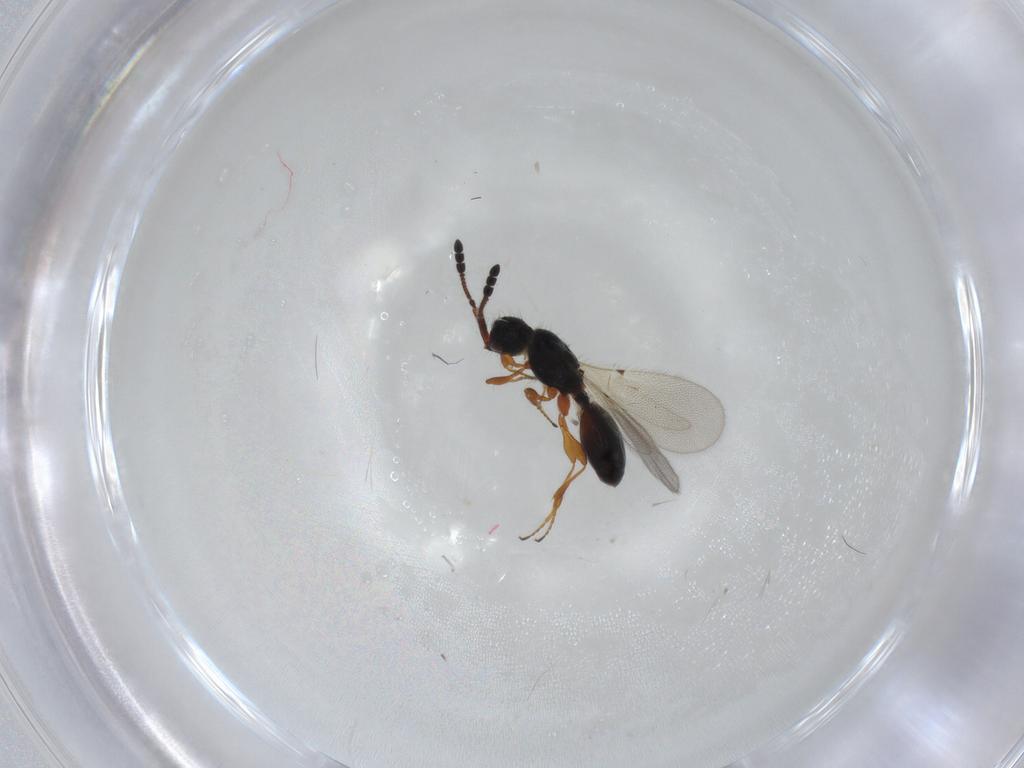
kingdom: Animalia
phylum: Arthropoda
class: Insecta
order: Hymenoptera
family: Diapriidae
